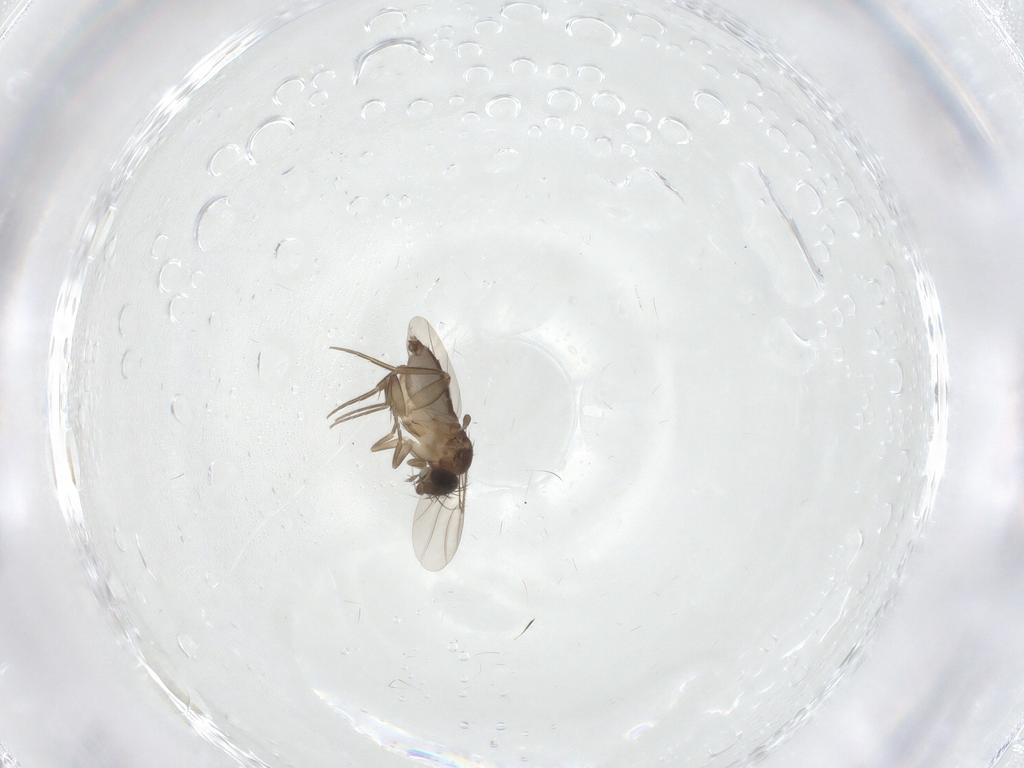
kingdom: Animalia
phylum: Arthropoda
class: Insecta
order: Diptera
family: Phoridae
